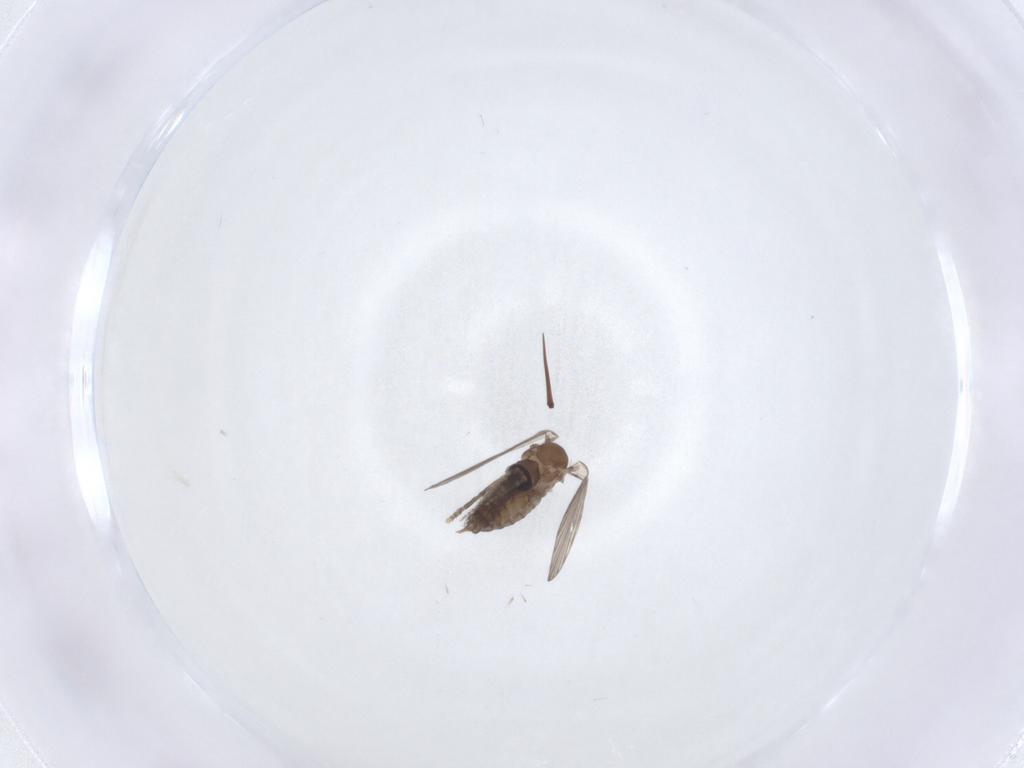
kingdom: Animalia
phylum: Arthropoda
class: Insecta
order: Diptera
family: Psychodidae
